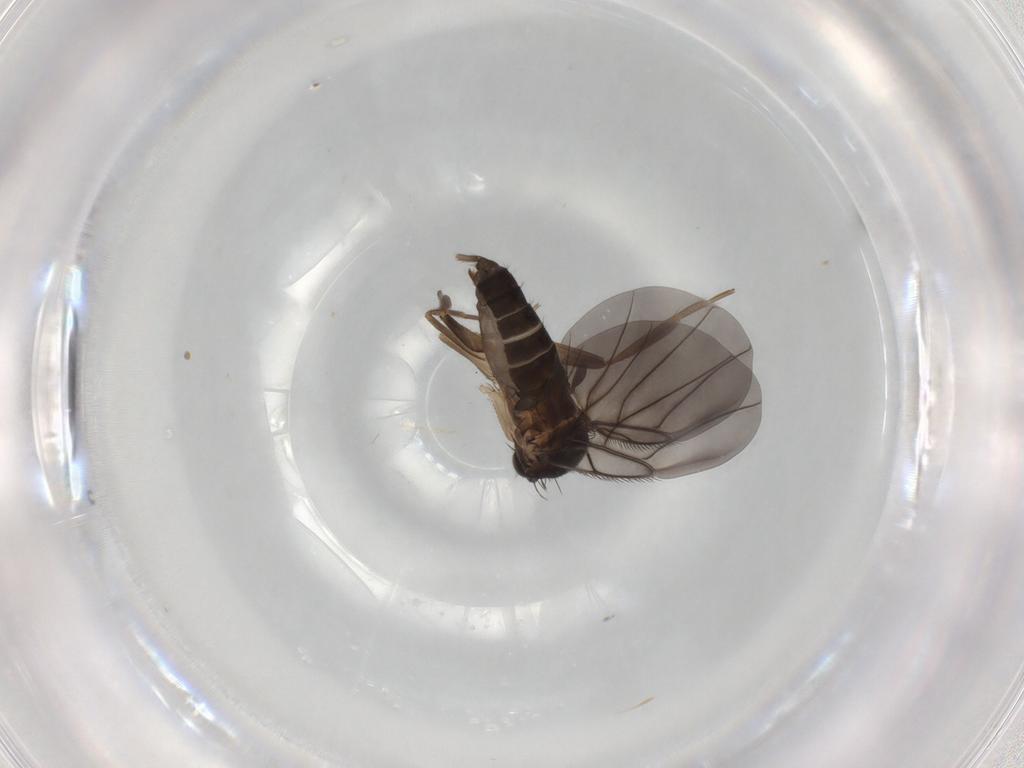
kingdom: Animalia
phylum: Arthropoda
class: Insecta
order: Diptera
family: Cecidomyiidae
